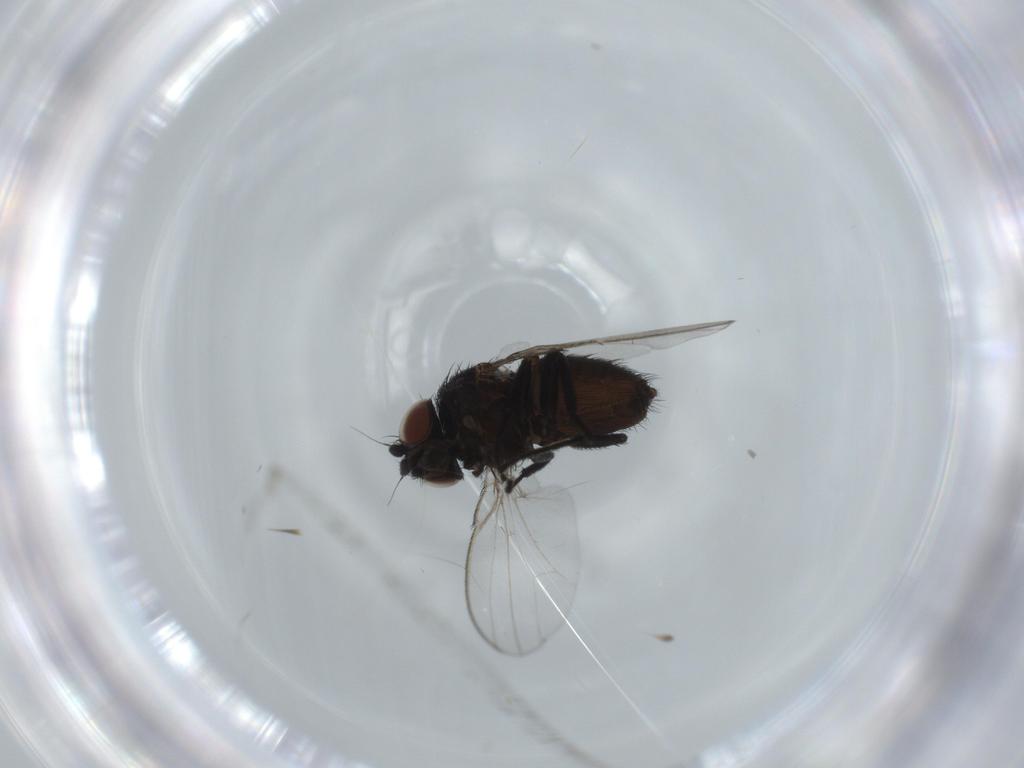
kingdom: Animalia
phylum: Arthropoda
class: Insecta
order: Diptera
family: Milichiidae
